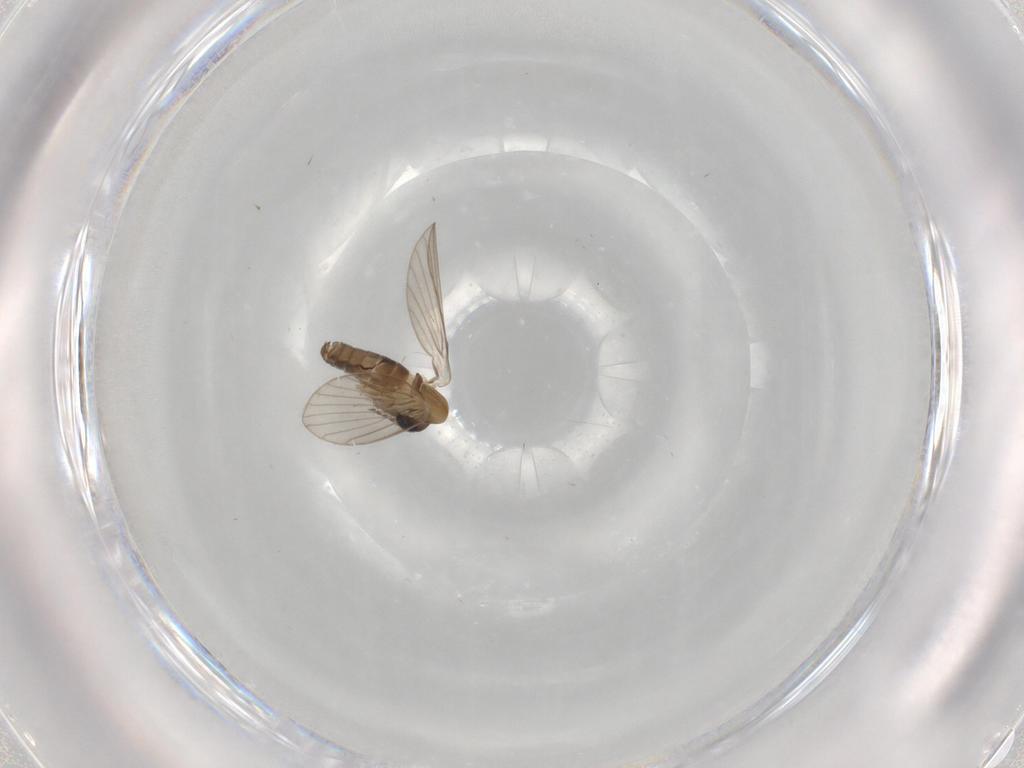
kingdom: Animalia
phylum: Arthropoda
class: Insecta
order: Diptera
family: Psychodidae
